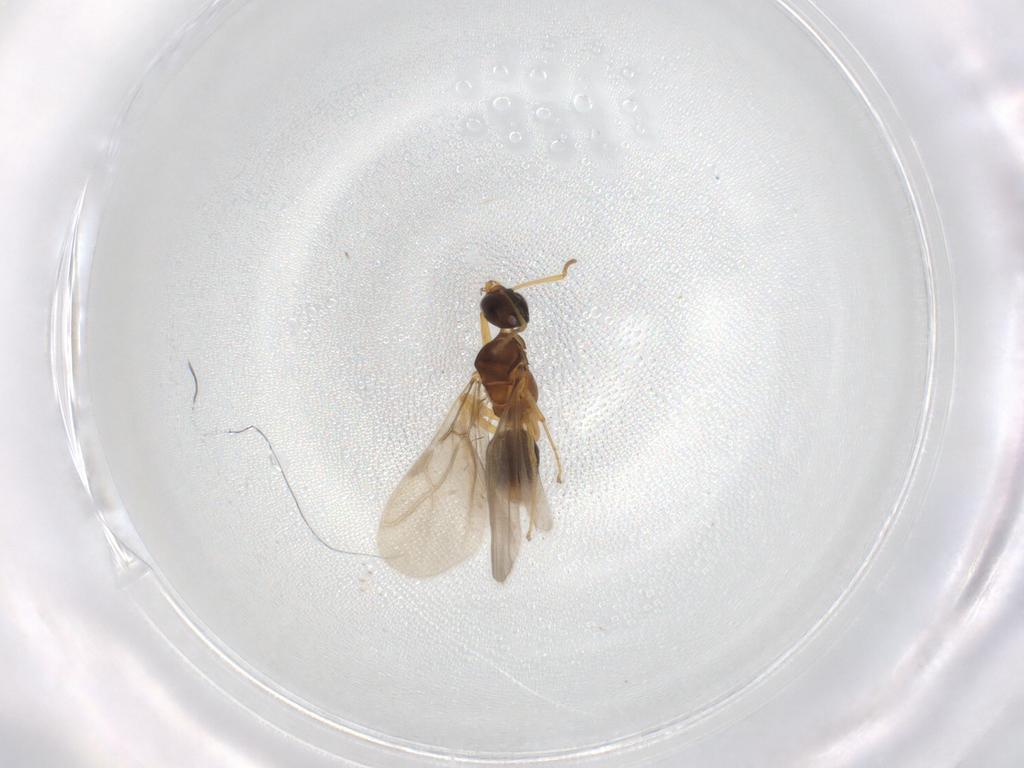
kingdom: Animalia
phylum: Arthropoda
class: Insecta
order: Hymenoptera
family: Formicidae
